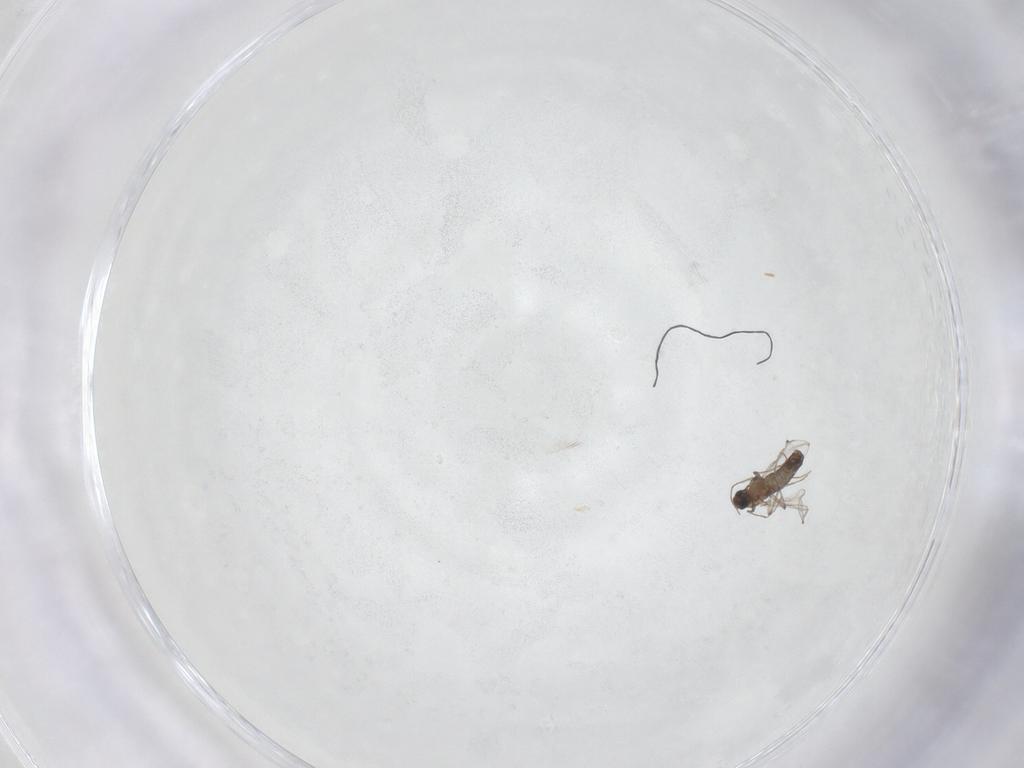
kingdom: Animalia
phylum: Arthropoda
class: Insecta
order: Diptera
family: Chironomidae
